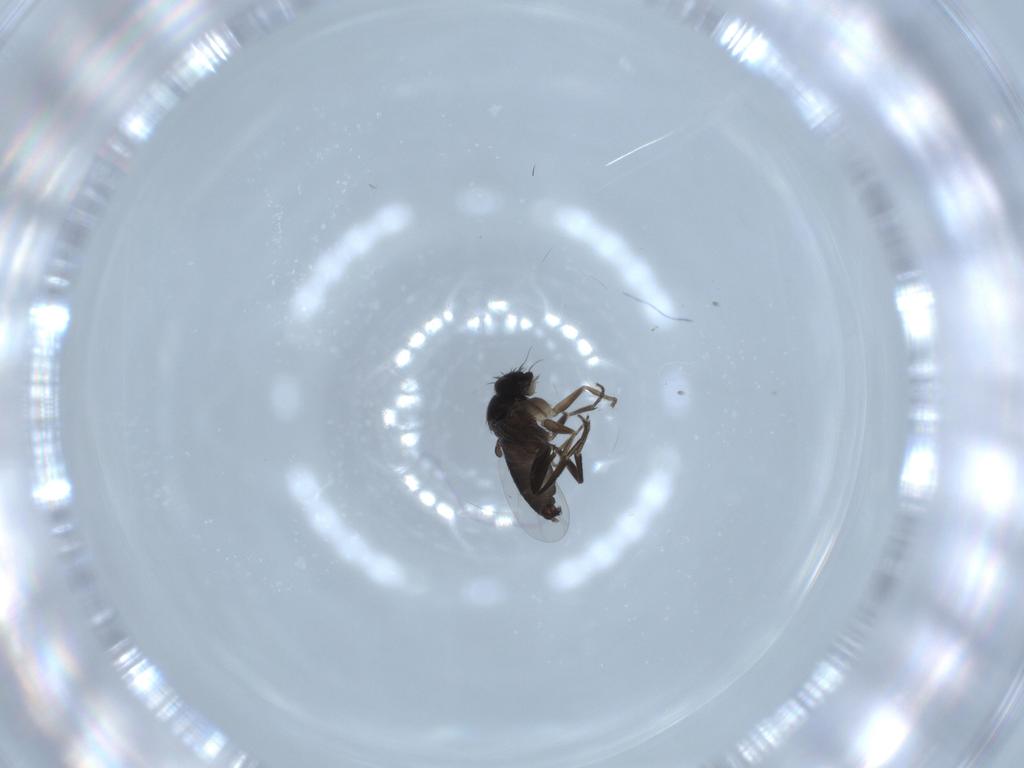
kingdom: Animalia
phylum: Arthropoda
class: Insecta
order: Diptera
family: Phoridae
